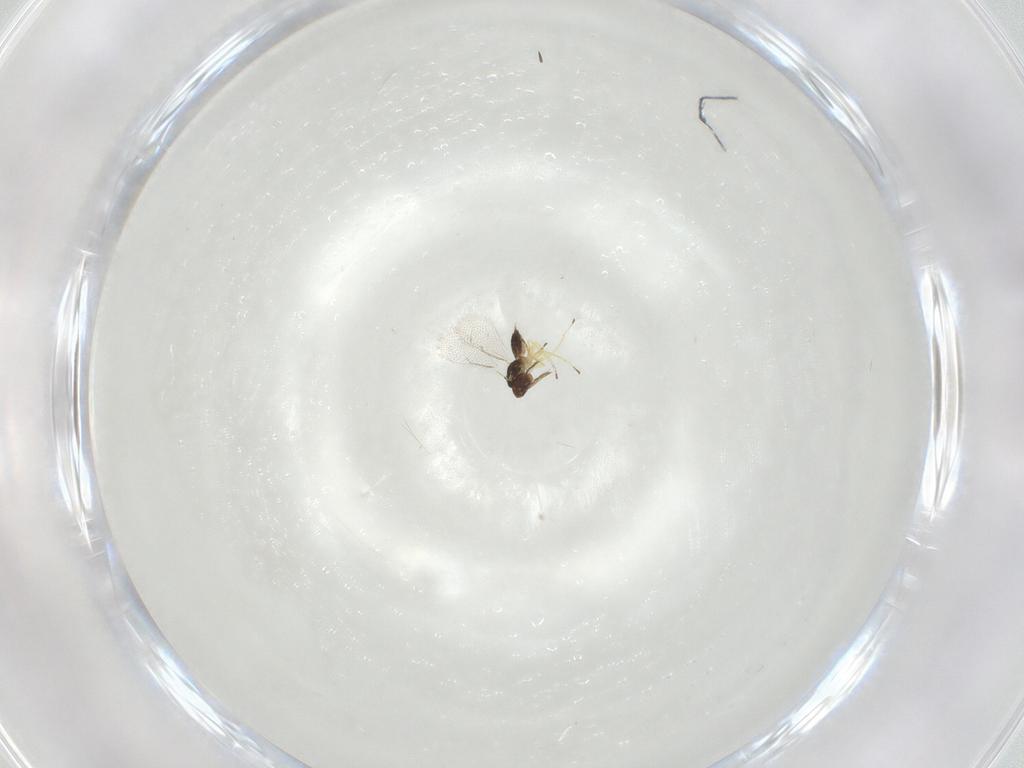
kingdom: Animalia
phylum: Arthropoda
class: Insecta
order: Hymenoptera
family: Eulophidae
